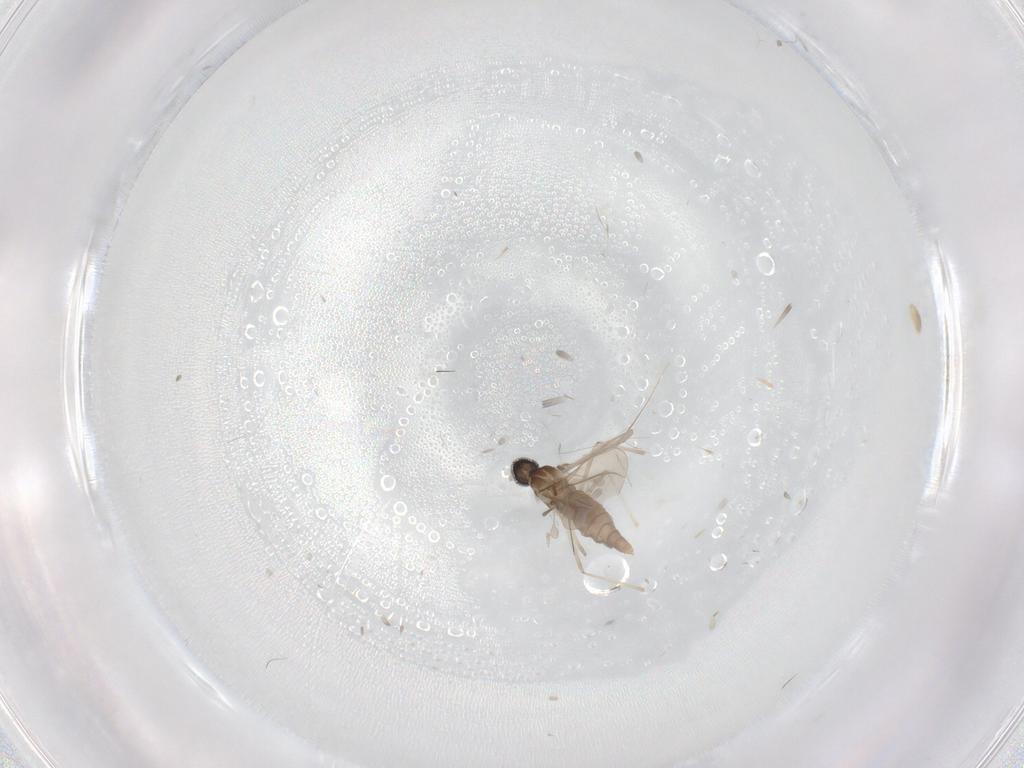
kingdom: Animalia
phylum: Arthropoda
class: Insecta
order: Diptera
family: Cecidomyiidae
